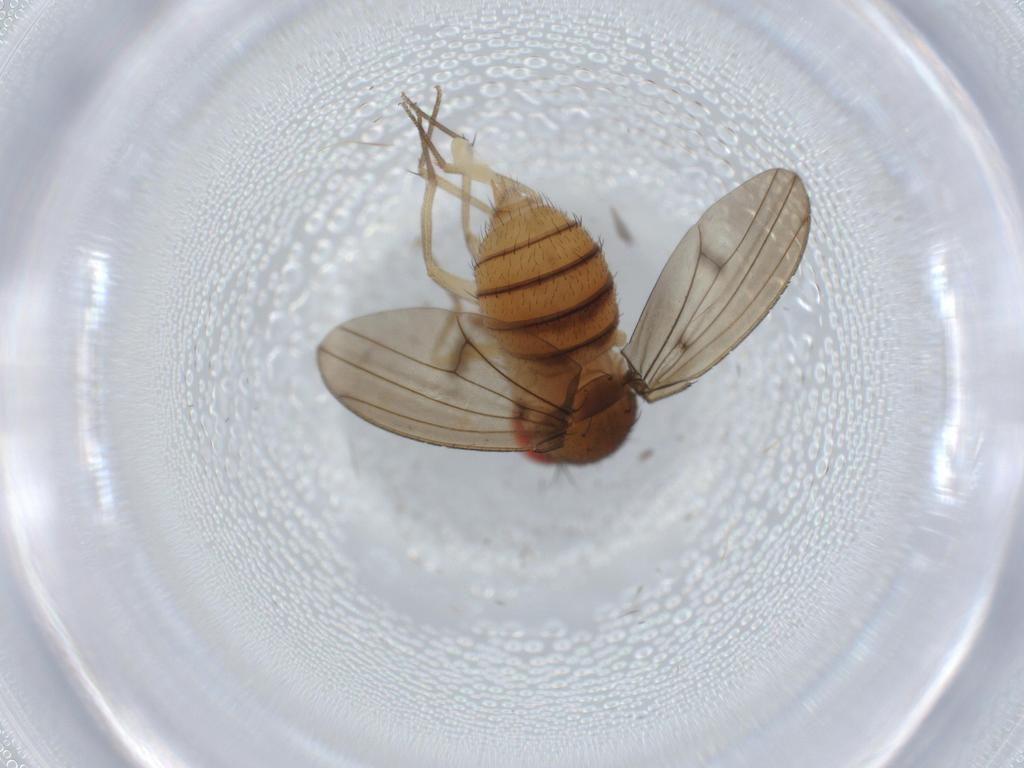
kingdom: Animalia
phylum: Arthropoda
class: Insecta
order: Diptera
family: Drosophilidae
